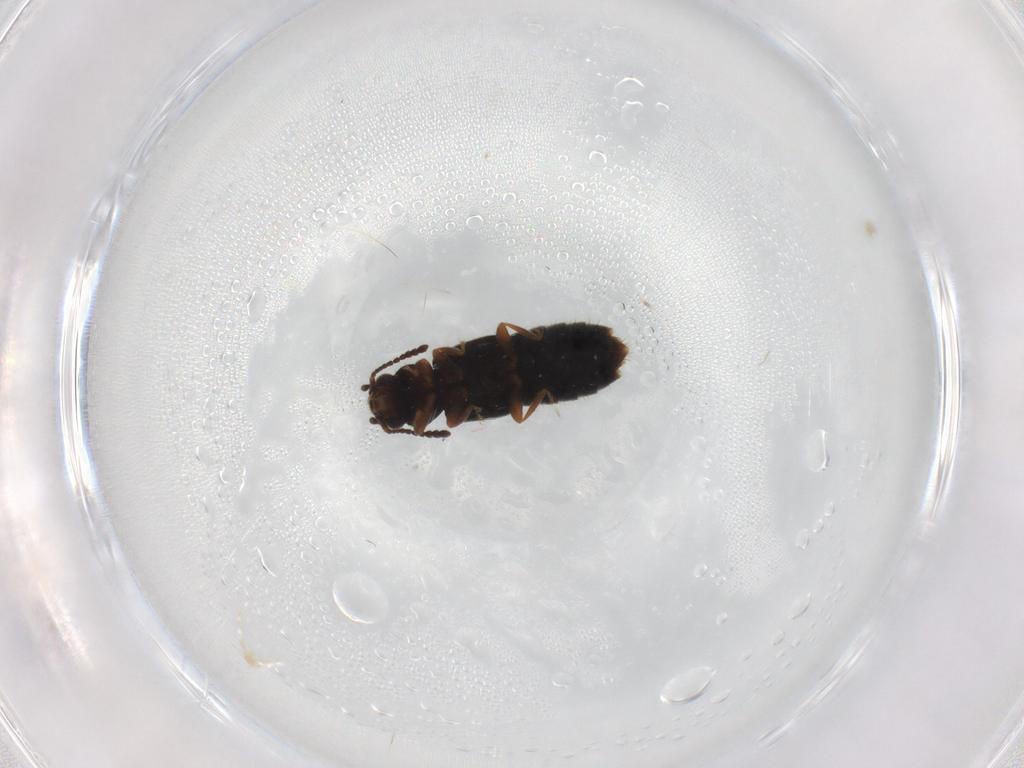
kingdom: Animalia
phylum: Arthropoda
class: Insecta
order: Coleoptera
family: Staphylinidae
